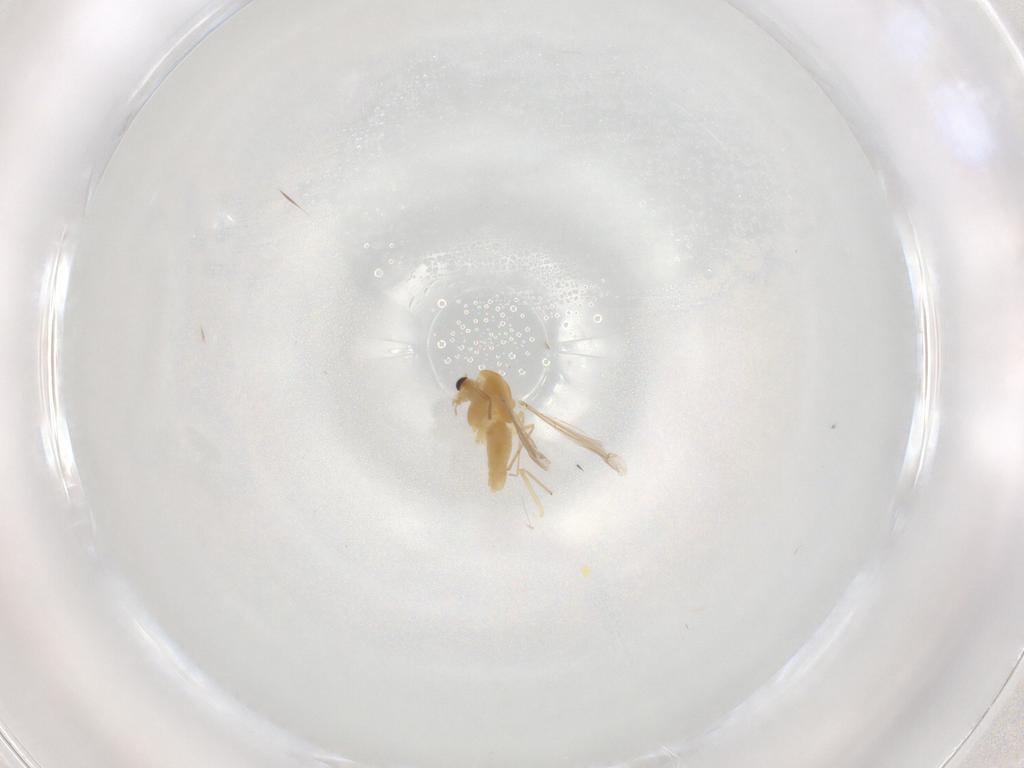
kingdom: Animalia
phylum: Arthropoda
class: Insecta
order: Diptera
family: Chironomidae
